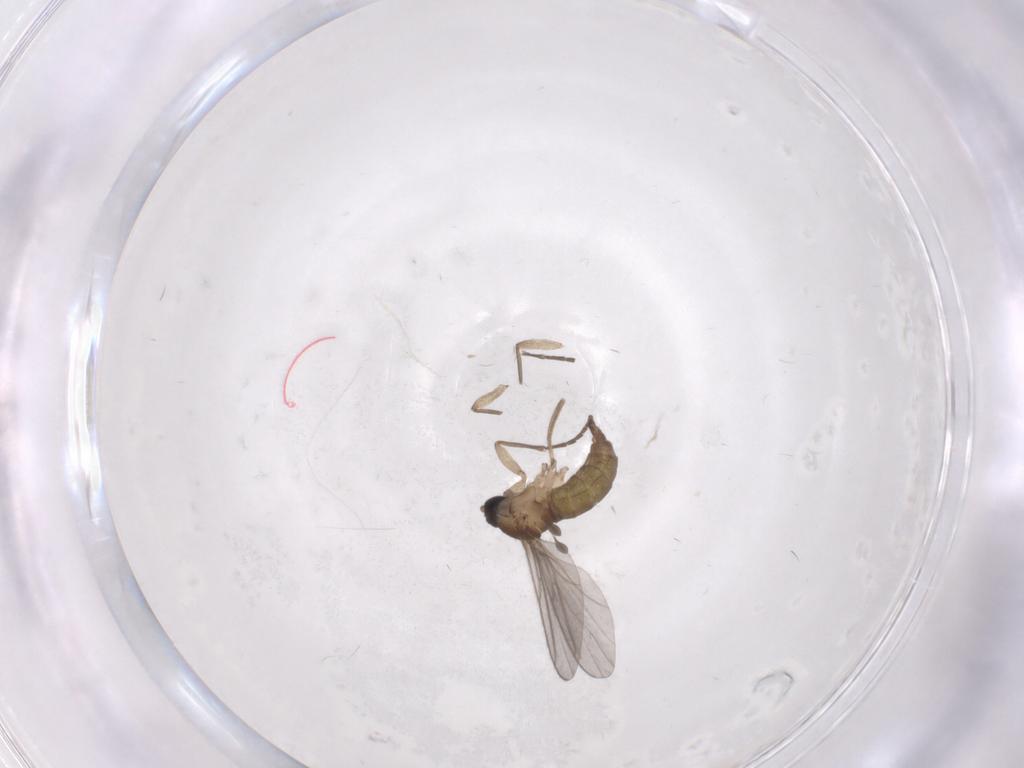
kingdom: Animalia
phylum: Arthropoda
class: Insecta
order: Diptera
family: Sciaridae
